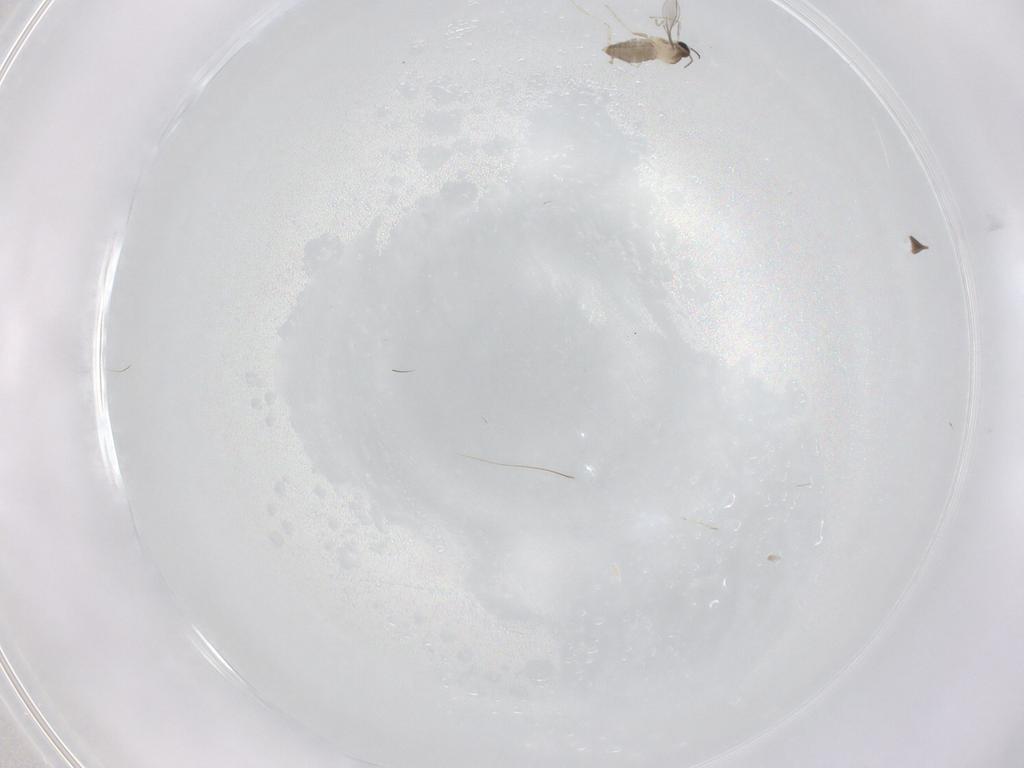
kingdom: Animalia
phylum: Arthropoda
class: Insecta
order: Diptera
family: Cecidomyiidae
